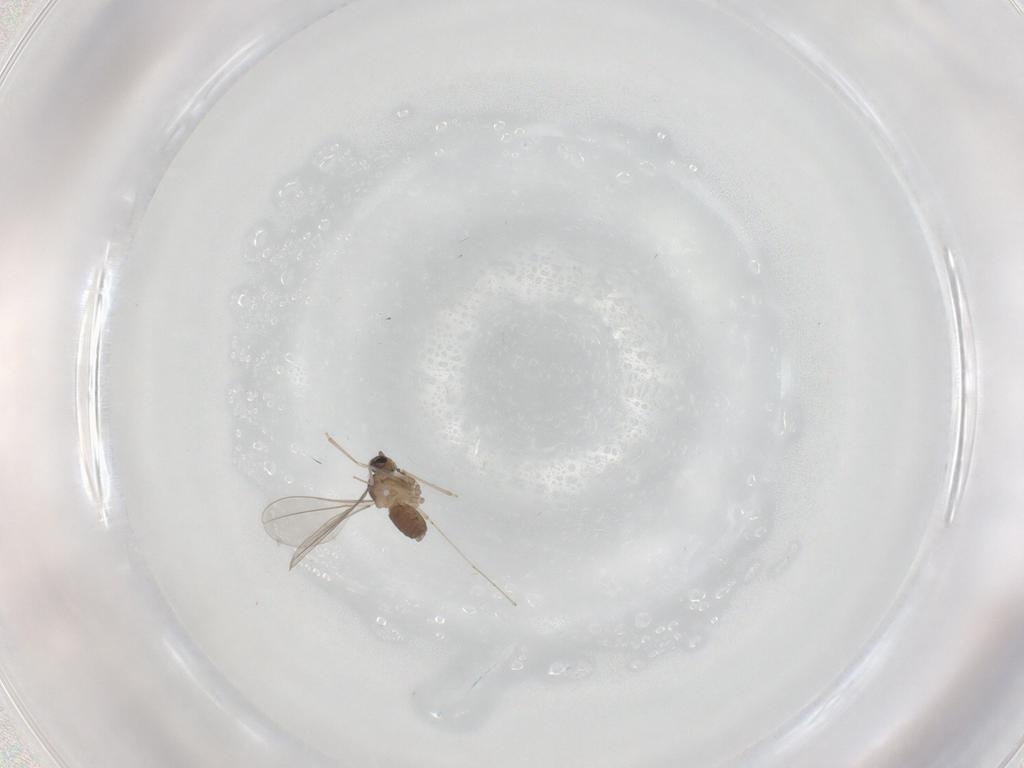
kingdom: Animalia
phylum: Arthropoda
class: Insecta
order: Diptera
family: Cecidomyiidae
